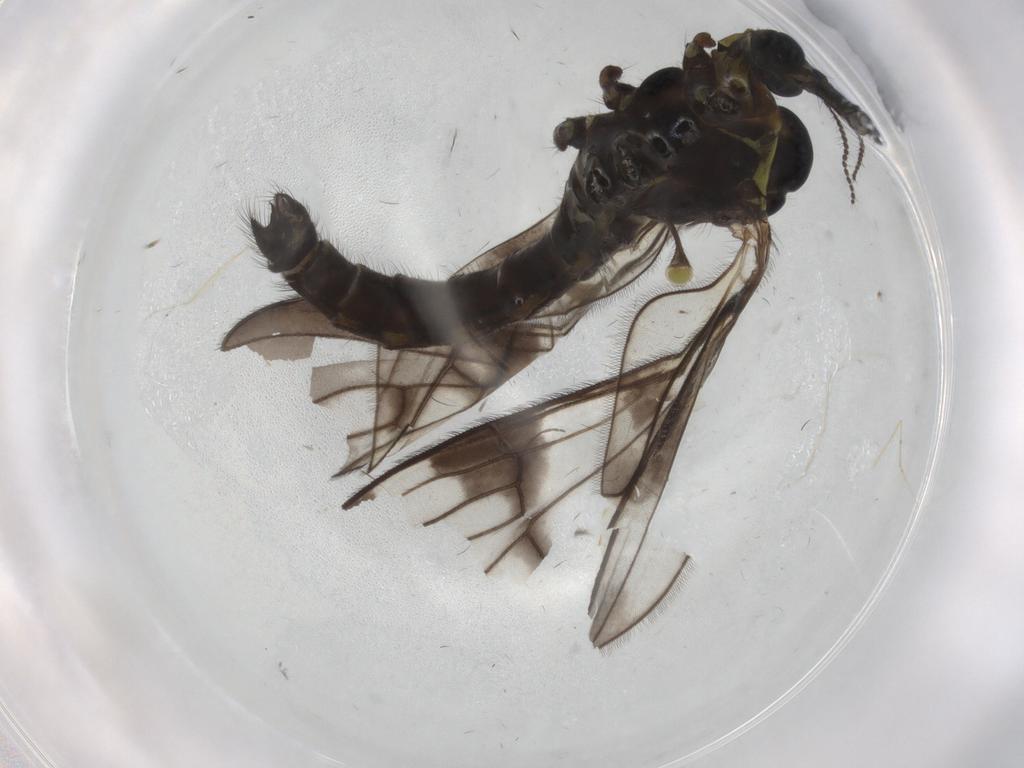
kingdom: Animalia
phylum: Arthropoda
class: Insecta
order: Diptera
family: Limoniidae
